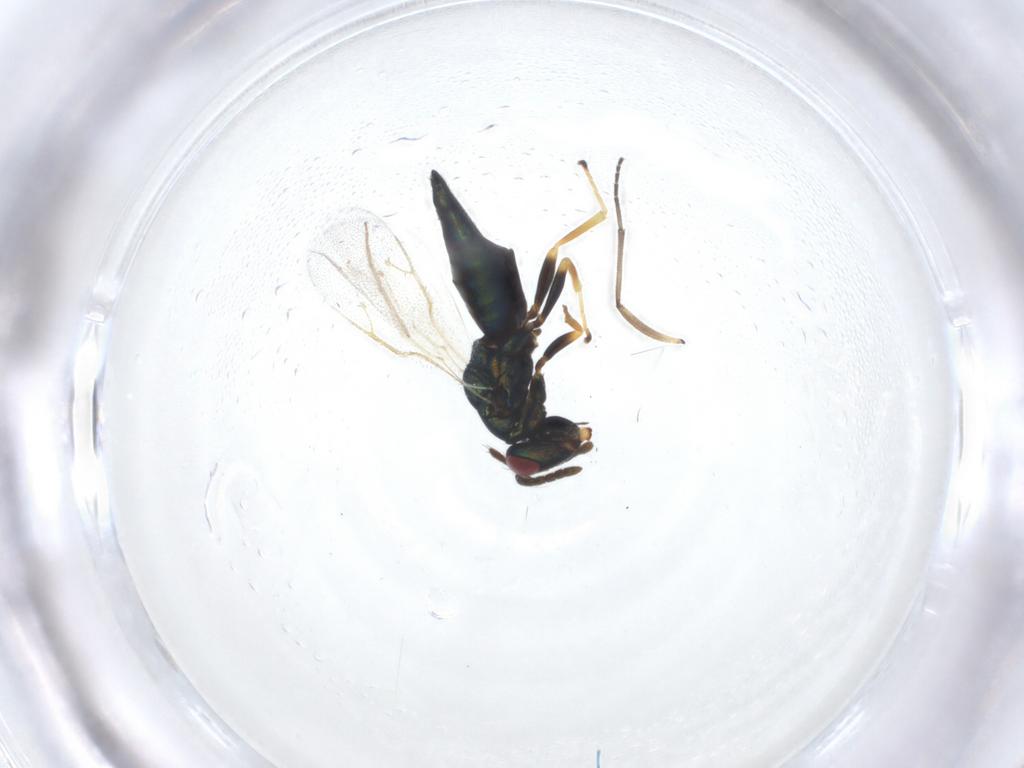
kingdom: Animalia
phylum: Arthropoda
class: Insecta
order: Hymenoptera
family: Pteromalidae
